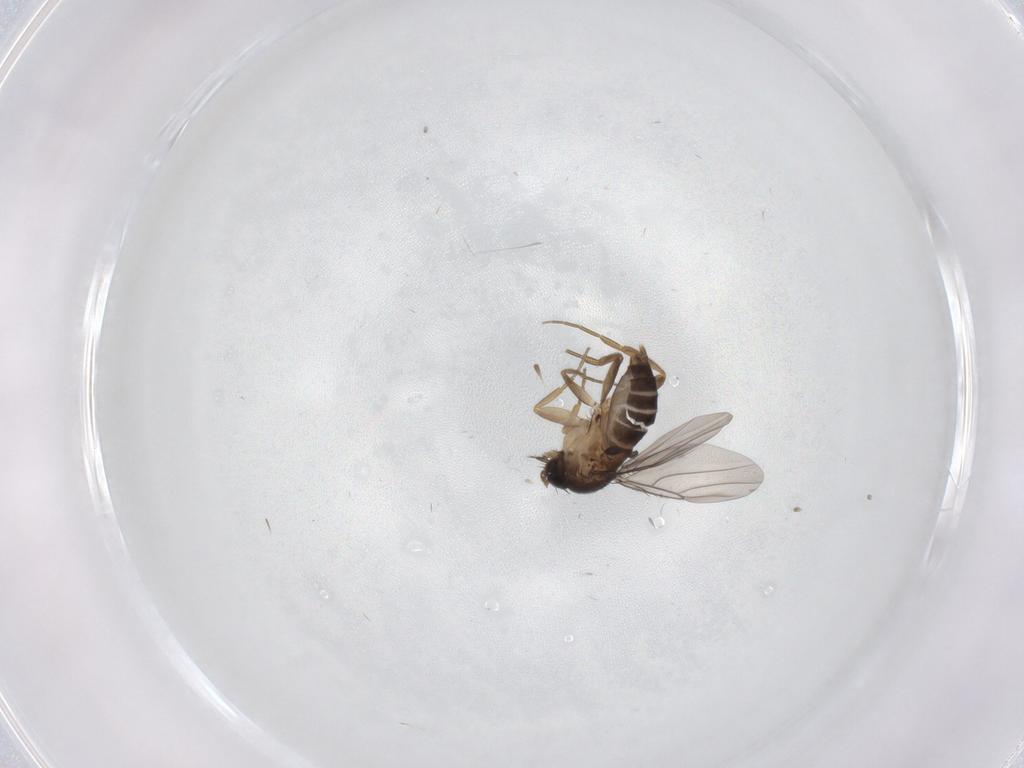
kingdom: Animalia
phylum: Arthropoda
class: Insecta
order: Diptera
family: Phoridae
